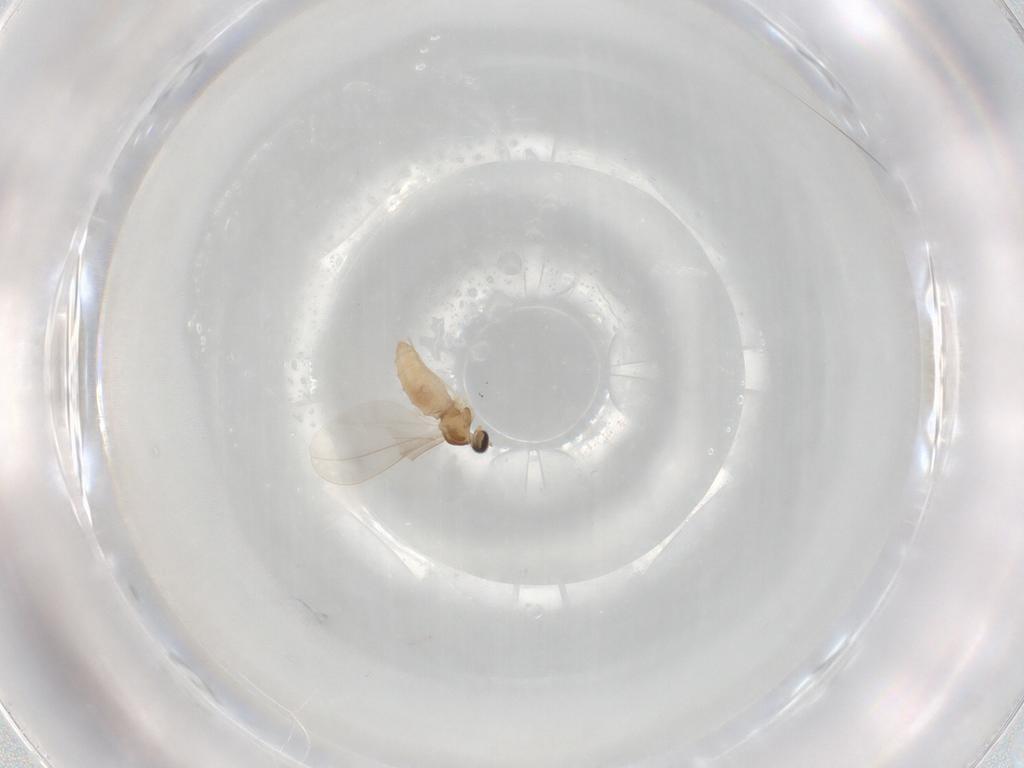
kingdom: Animalia
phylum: Arthropoda
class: Insecta
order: Diptera
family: Cecidomyiidae
